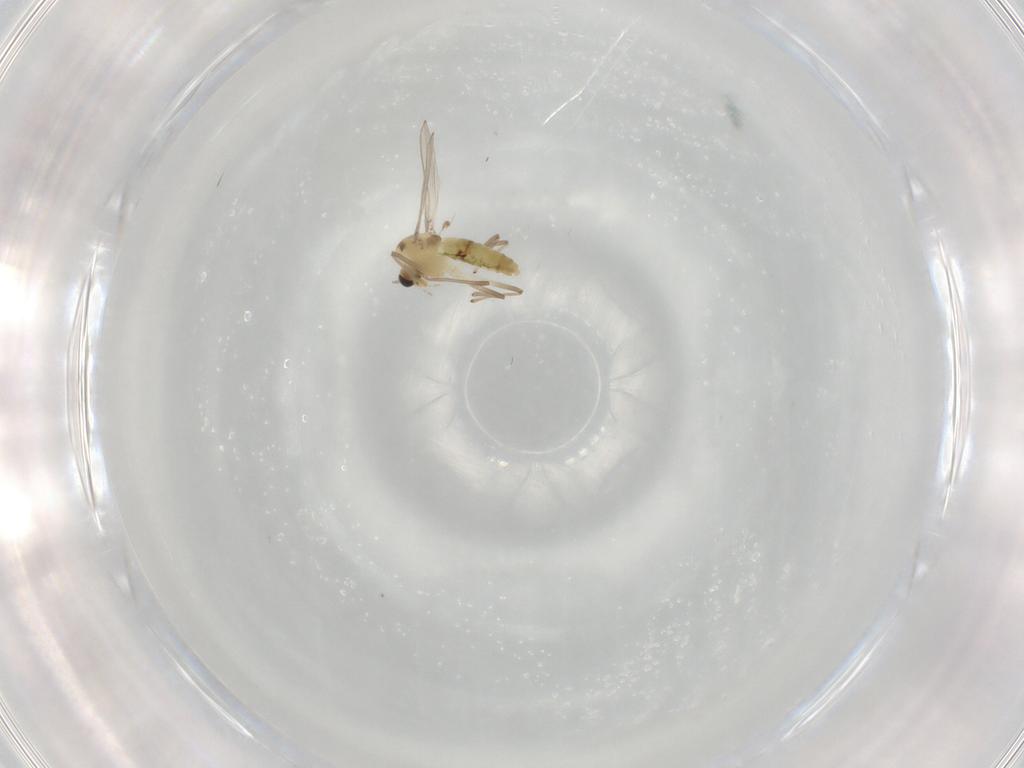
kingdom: Animalia
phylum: Arthropoda
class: Insecta
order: Diptera
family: Chironomidae
